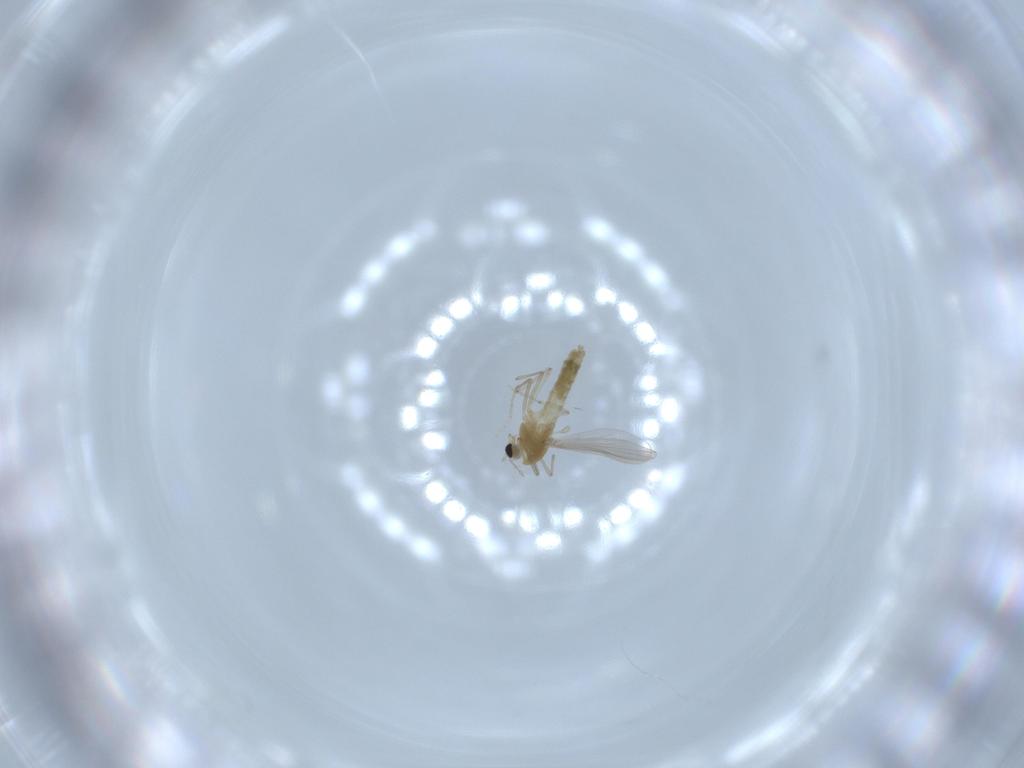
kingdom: Animalia
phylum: Arthropoda
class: Insecta
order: Diptera
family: Chironomidae
